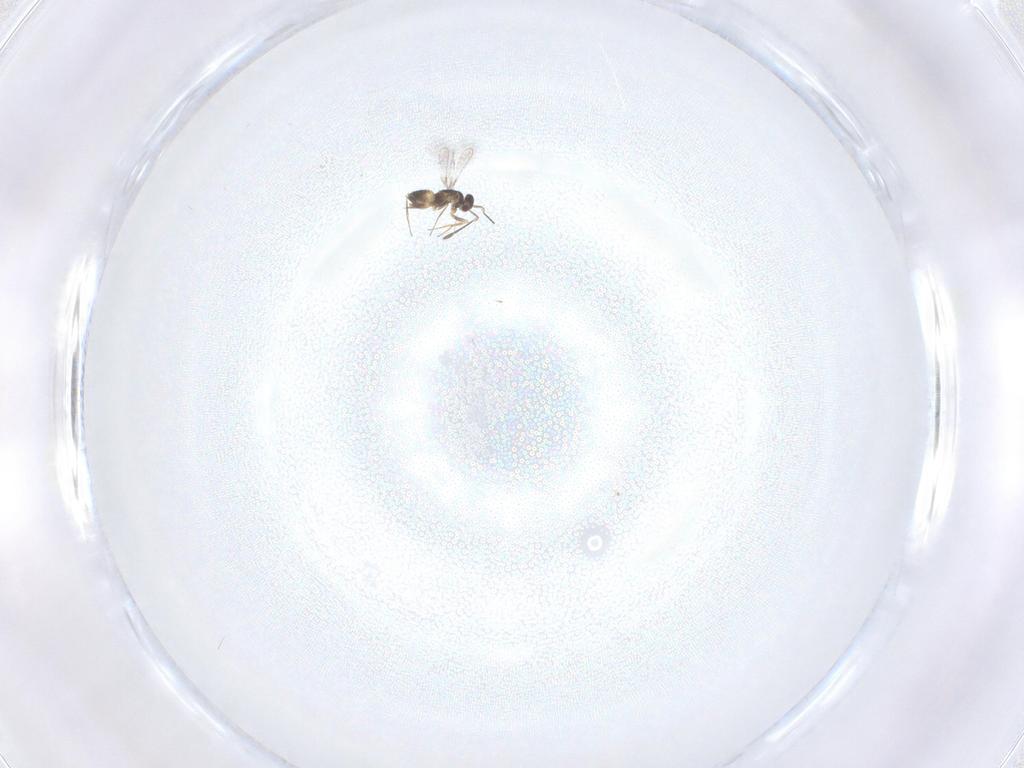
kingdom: Animalia
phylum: Arthropoda
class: Insecta
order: Hymenoptera
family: Mymaridae
